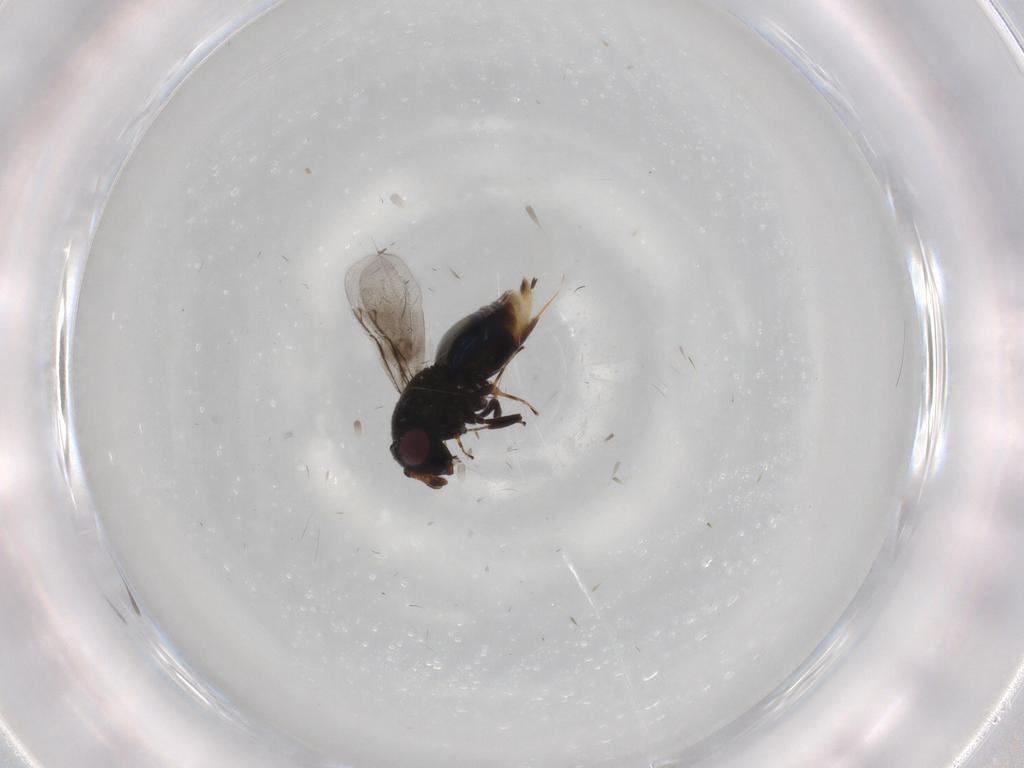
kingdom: Animalia
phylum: Arthropoda
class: Insecta
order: Hymenoptera
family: Encyrtidae
